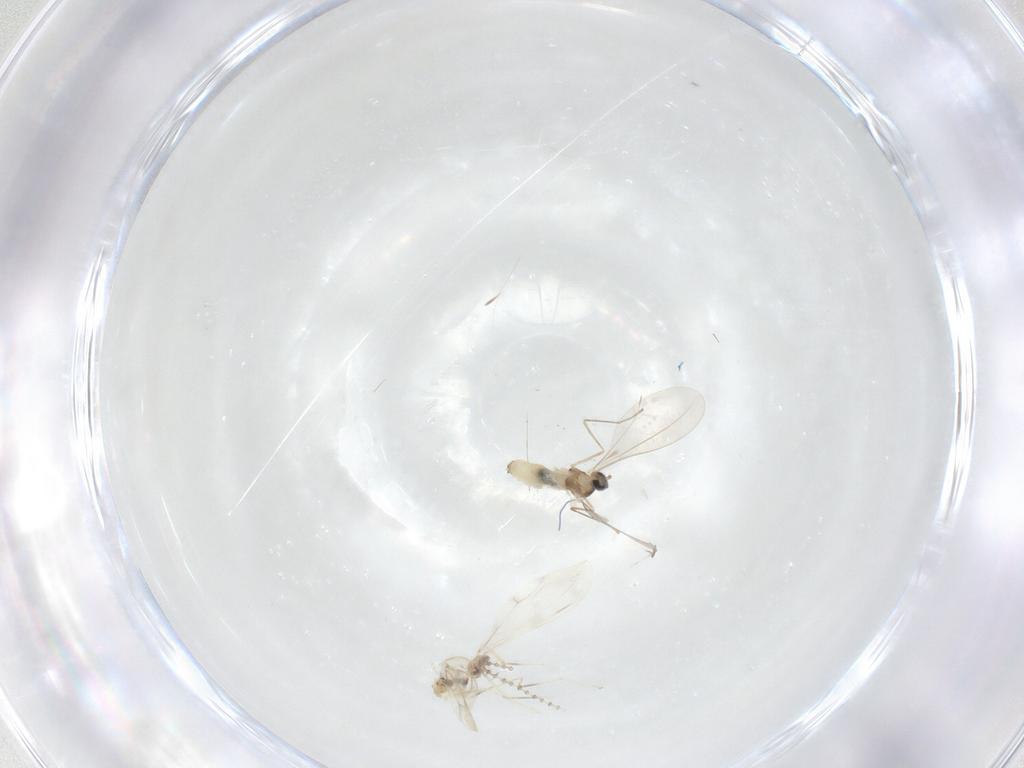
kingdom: Animalia
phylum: Arthropoda
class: Insecta
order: Diptera
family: Cecidomyiidae
